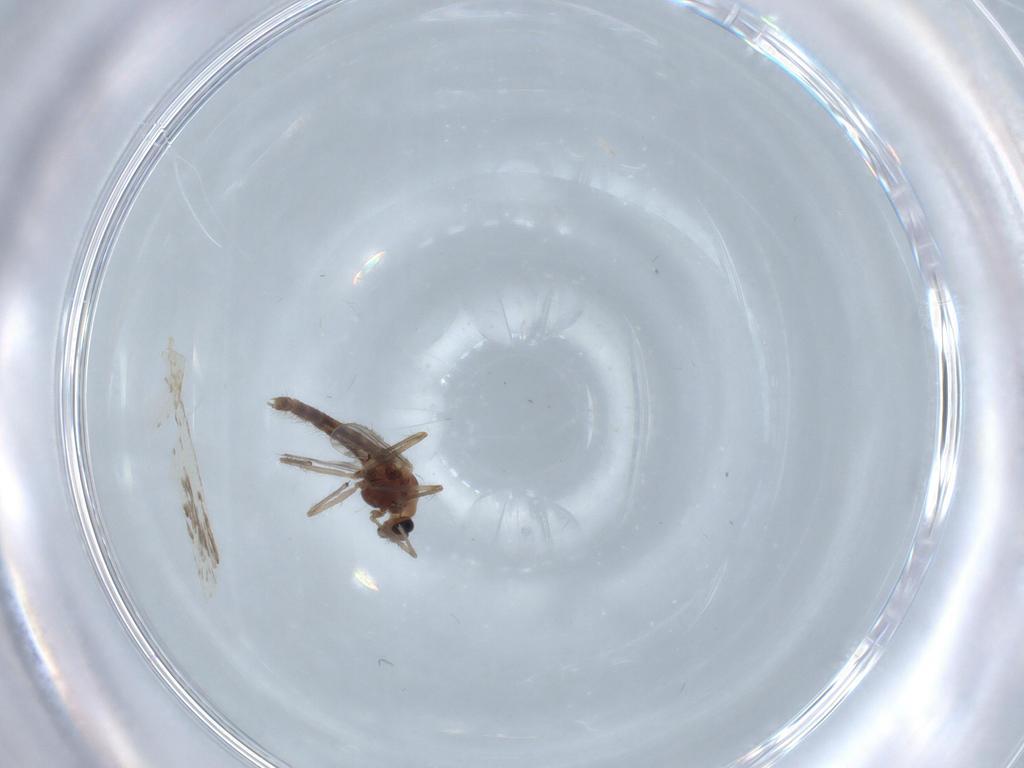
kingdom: Animalia
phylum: Arthropoda
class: Insecta
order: Diptera
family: Chironomidae
